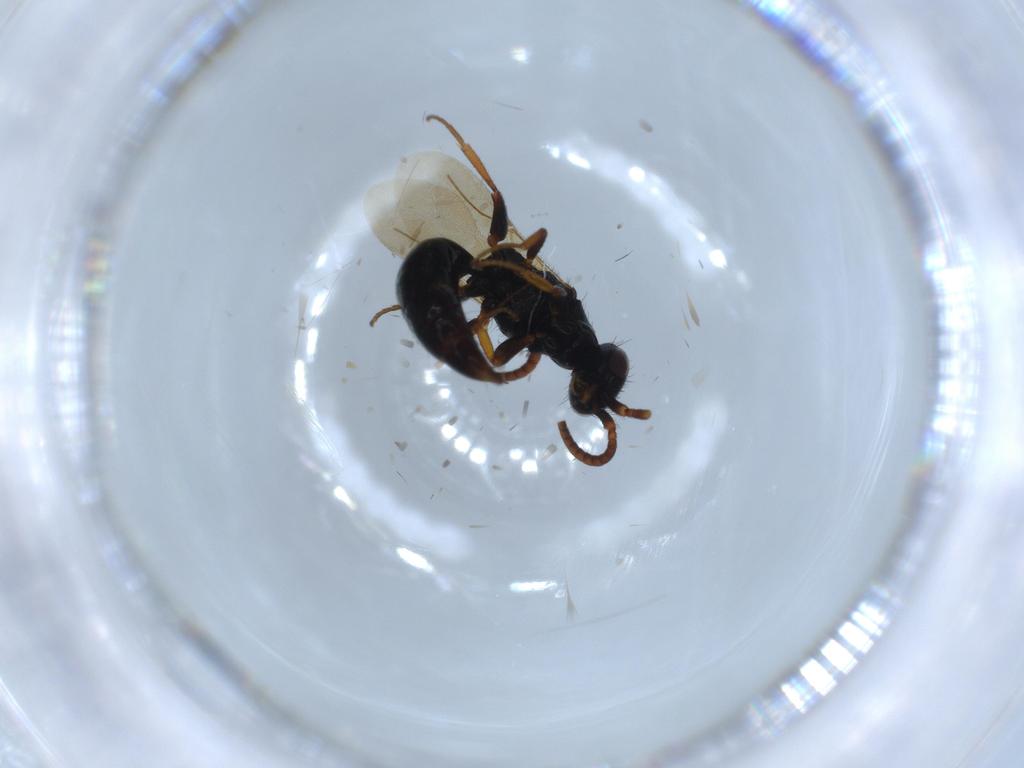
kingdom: Animalia
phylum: Arthropoda
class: Insecta
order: Hymenoptera
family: Bethylidae
